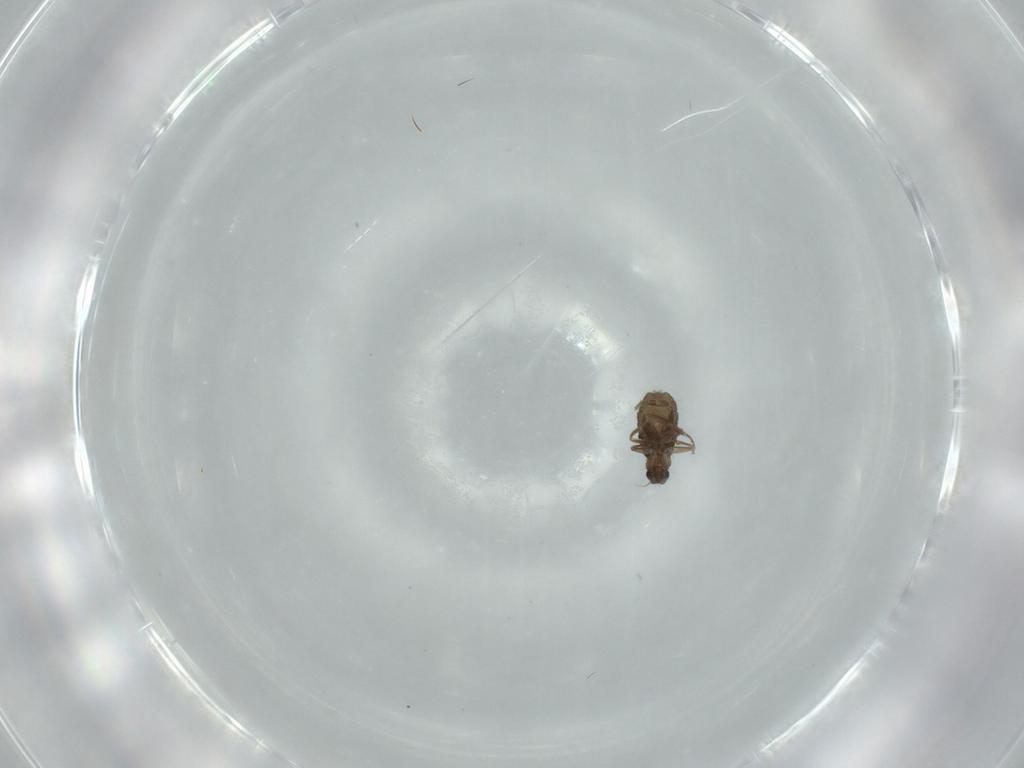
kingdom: Animalia
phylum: Arthropoda
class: Insecta
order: Diptera
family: Phoridae
